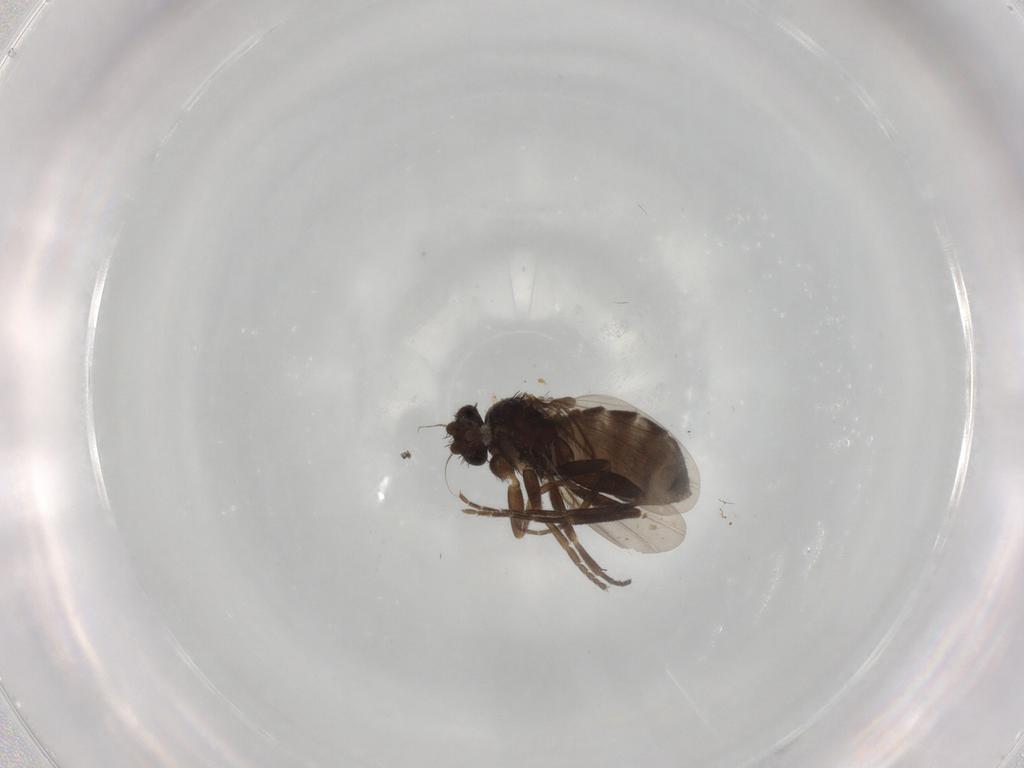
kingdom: Animalia
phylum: Arthropoda
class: Insecta
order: Diptera
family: Phoridae
